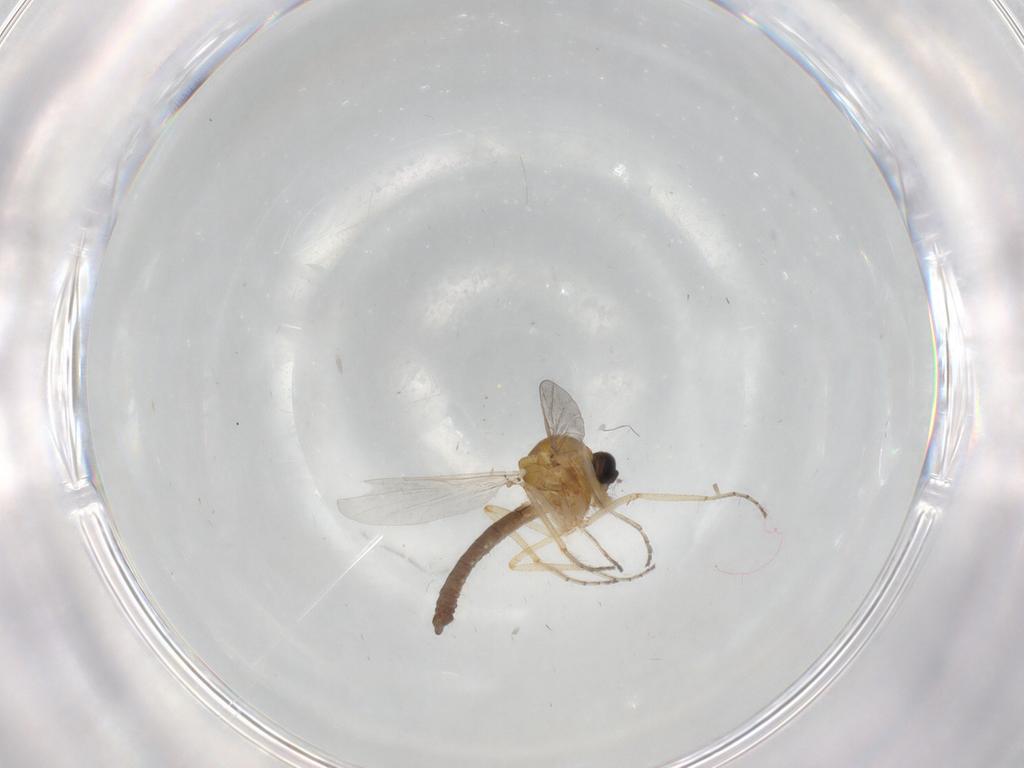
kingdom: Animalia
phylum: Arthropoda
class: Insecta
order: Diptera
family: Ceratopogonidae
